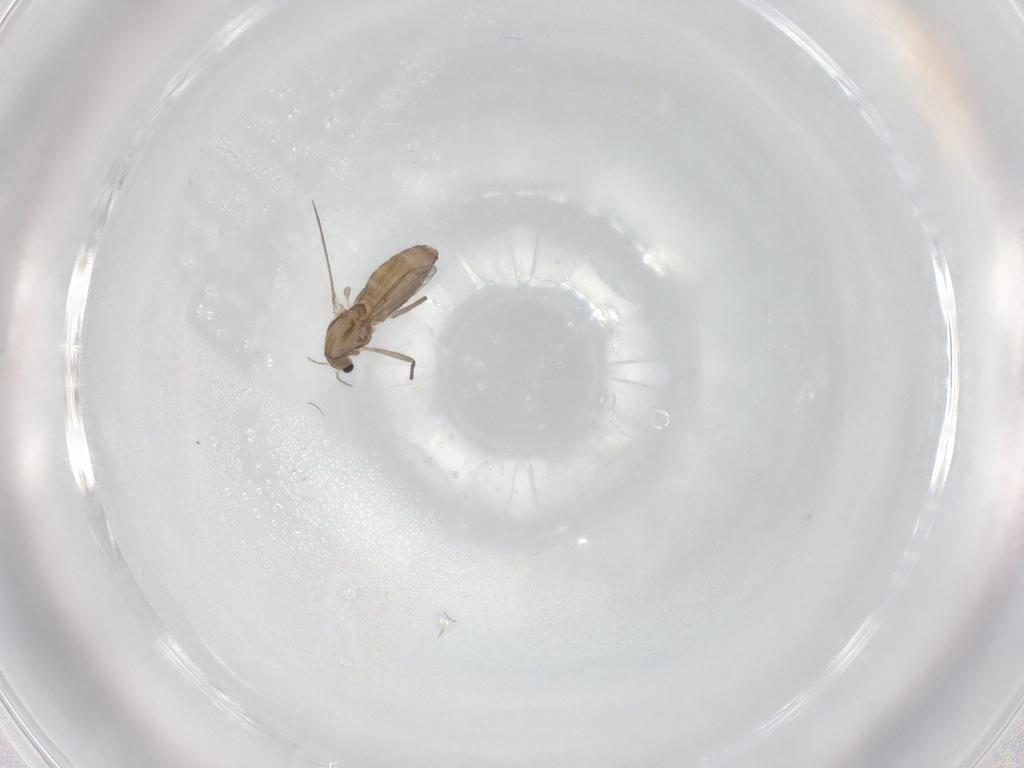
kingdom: Animalia
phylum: Arthropoda
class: Insecta
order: Diptera
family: Chironomidae
